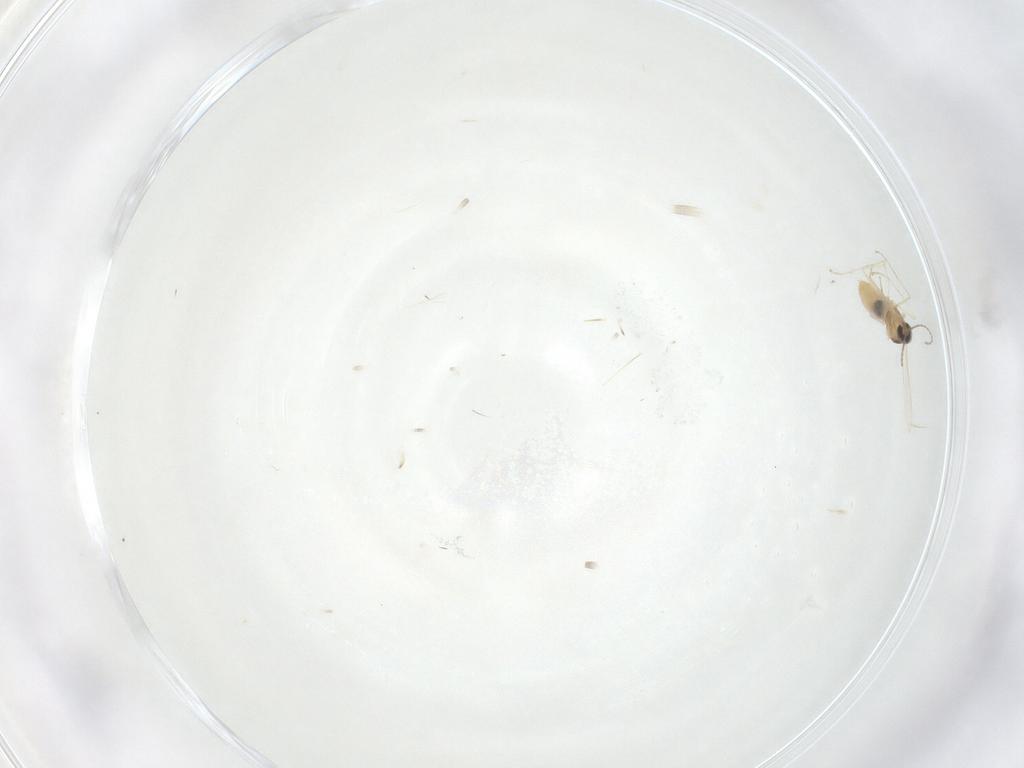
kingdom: Animalia
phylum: Arthropoda
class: Insecta
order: Diptera
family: Cecidomyiidae
